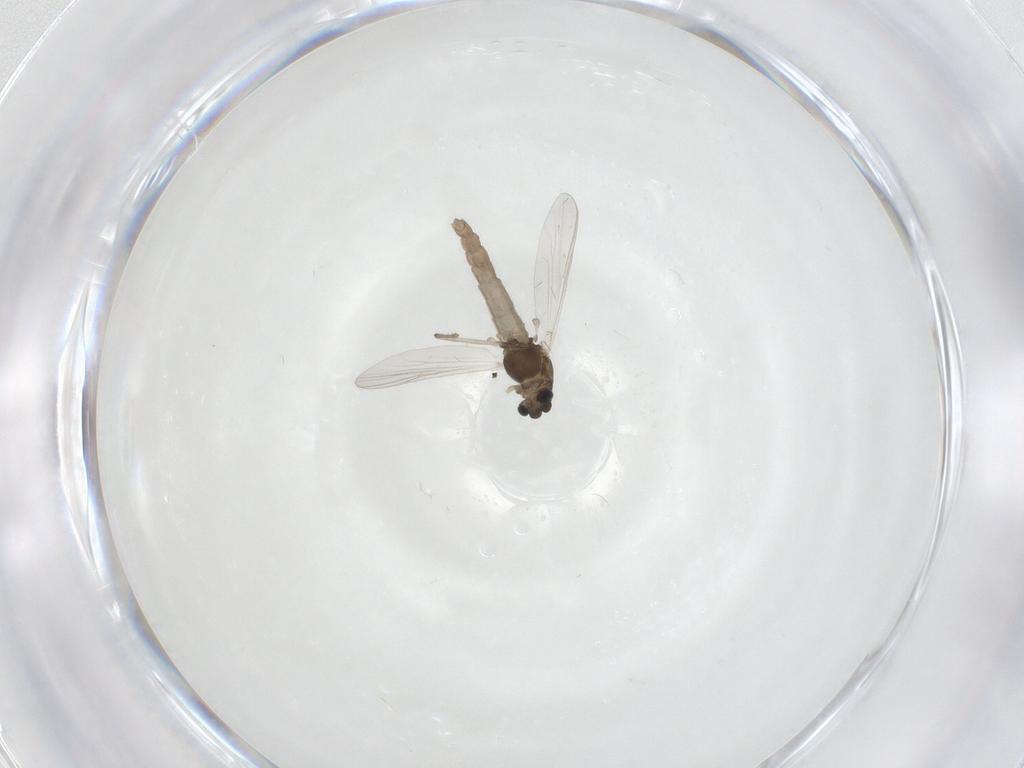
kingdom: Animalia
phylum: Arthropoda
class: Insecta
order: Diptera
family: Chironomidae
